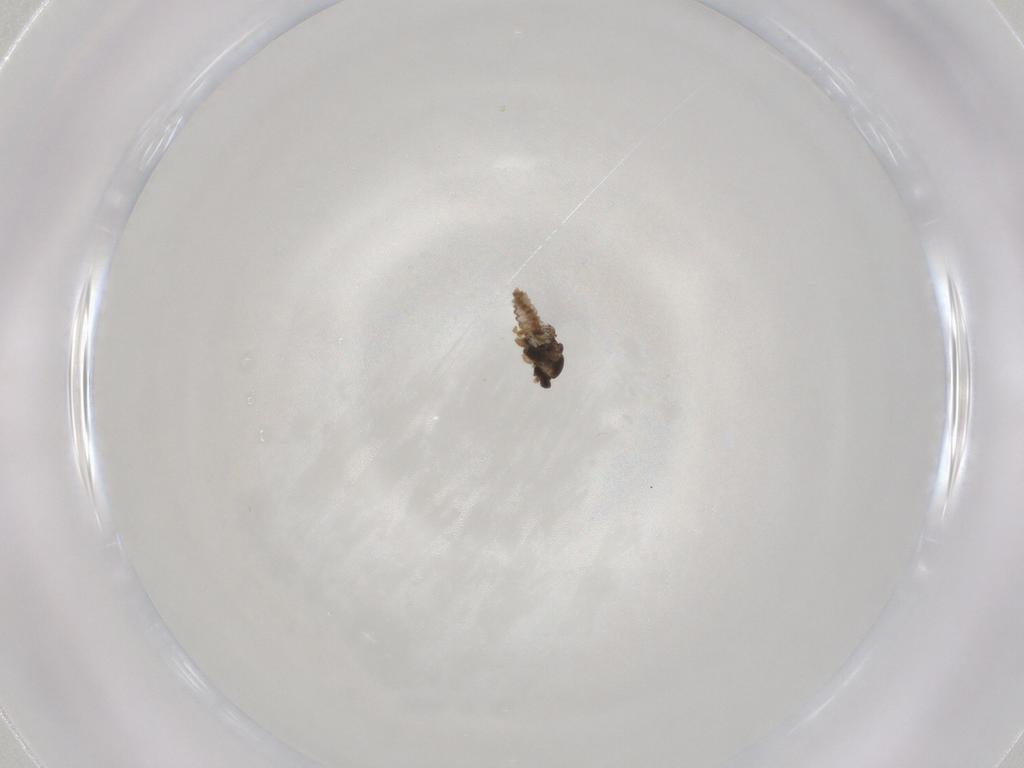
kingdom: Animalia
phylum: Arthropoda
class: Insecta
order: Diptera
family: Cecidomyiidae
